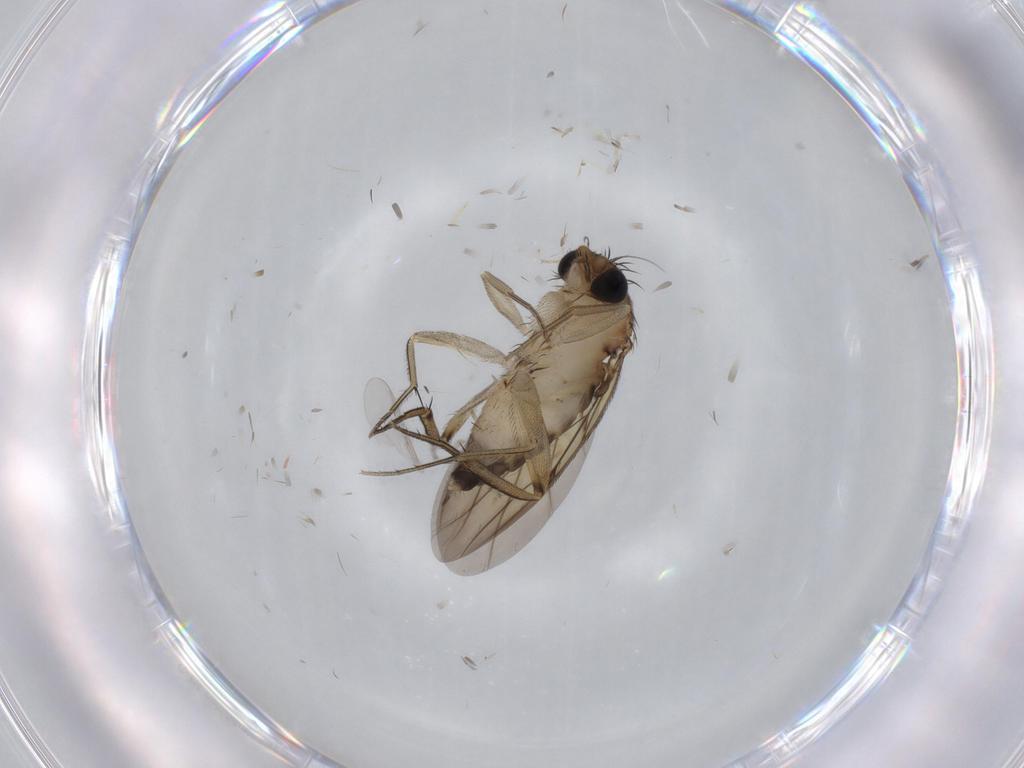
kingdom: Animalia
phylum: Arthropoda
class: Insecta
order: Diptera
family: Phoridae
